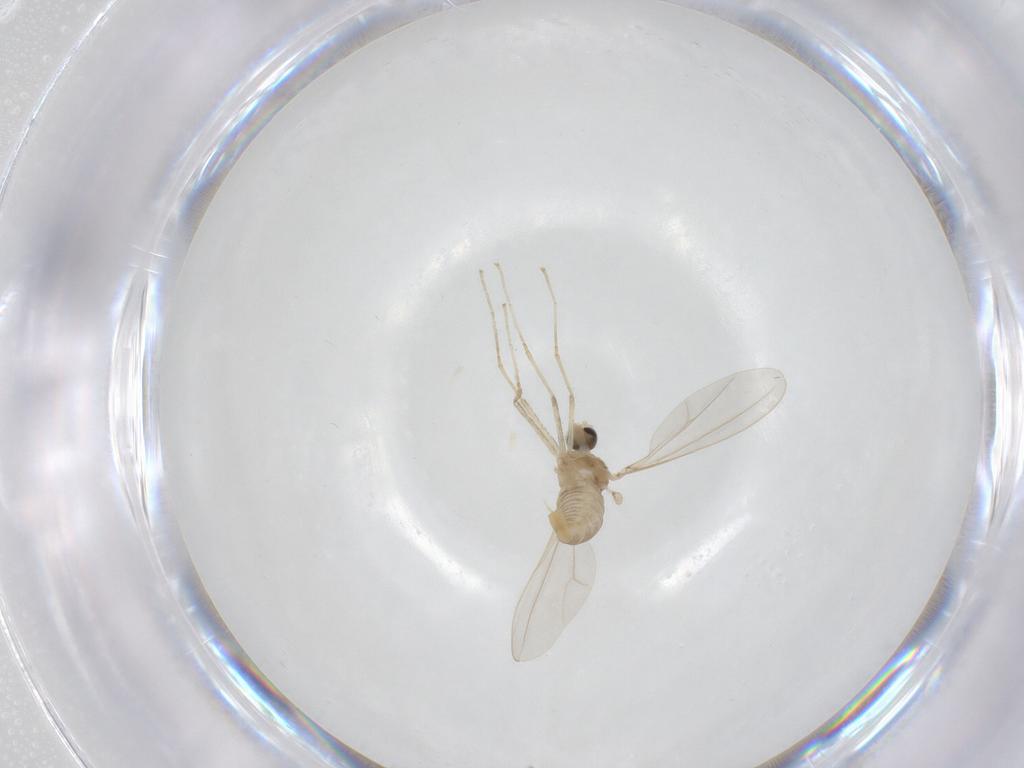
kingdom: Animalia
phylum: Arthropoda
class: Insecta
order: Diptera
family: Cecidomyiidae
